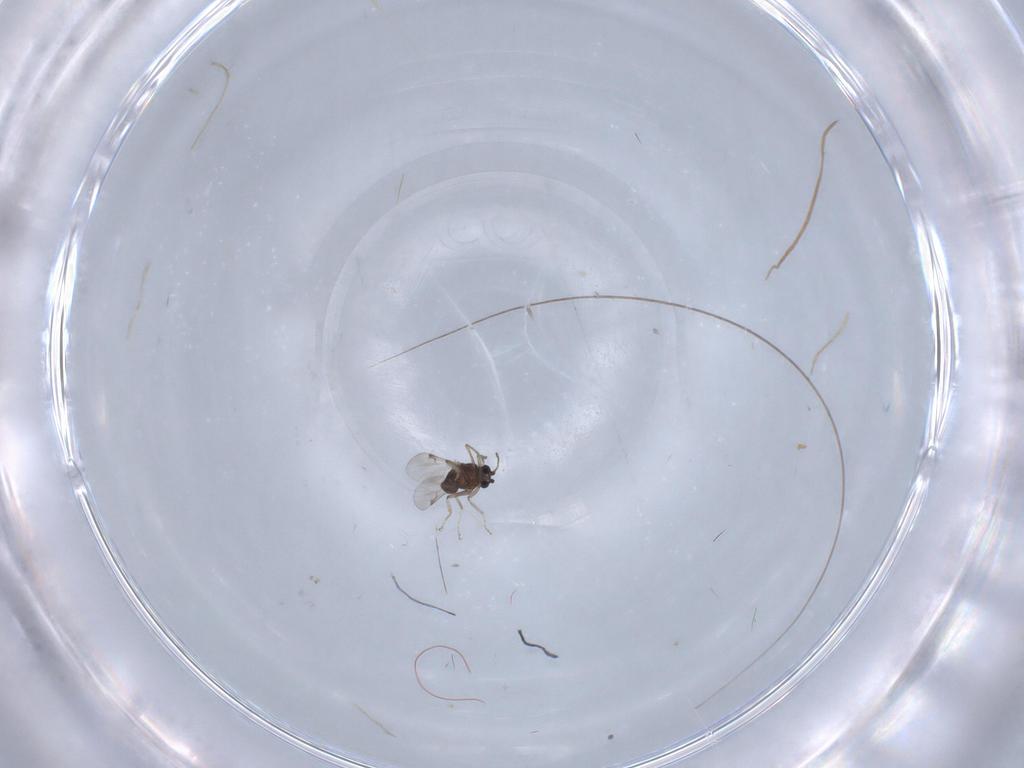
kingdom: Animalia
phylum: Arthropoda
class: Insecta
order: Diptera
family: Ceratopogonidae
